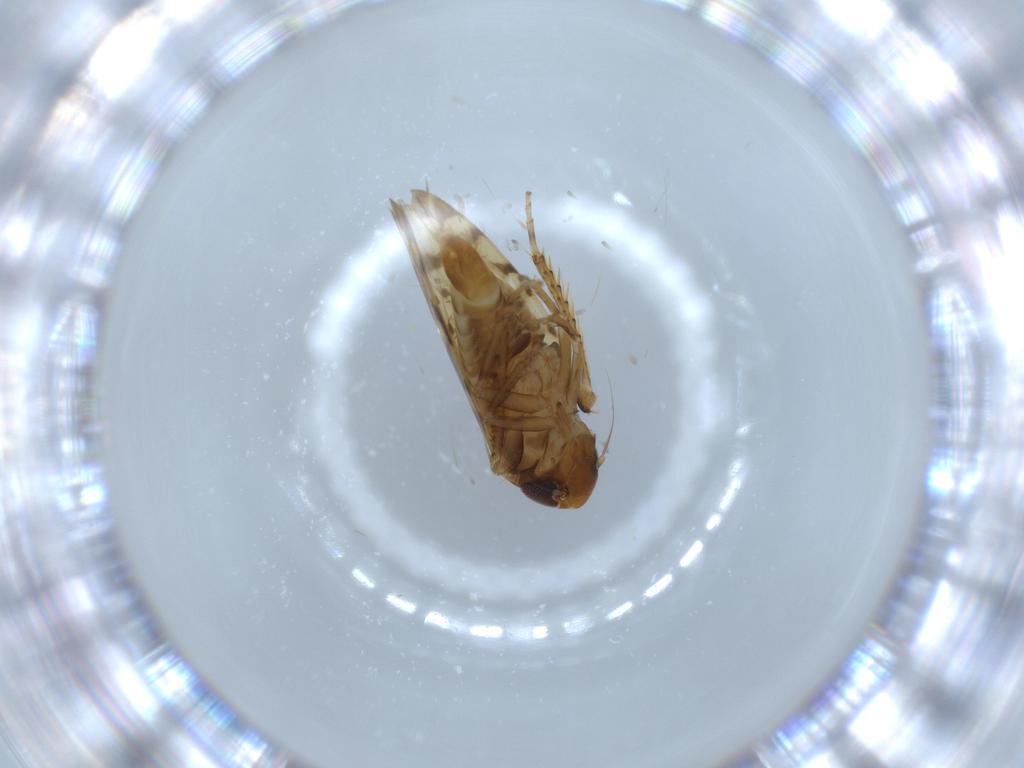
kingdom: Animalia
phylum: Arthropoda
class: Insecta
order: Hemiptera
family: Cicadellidae
